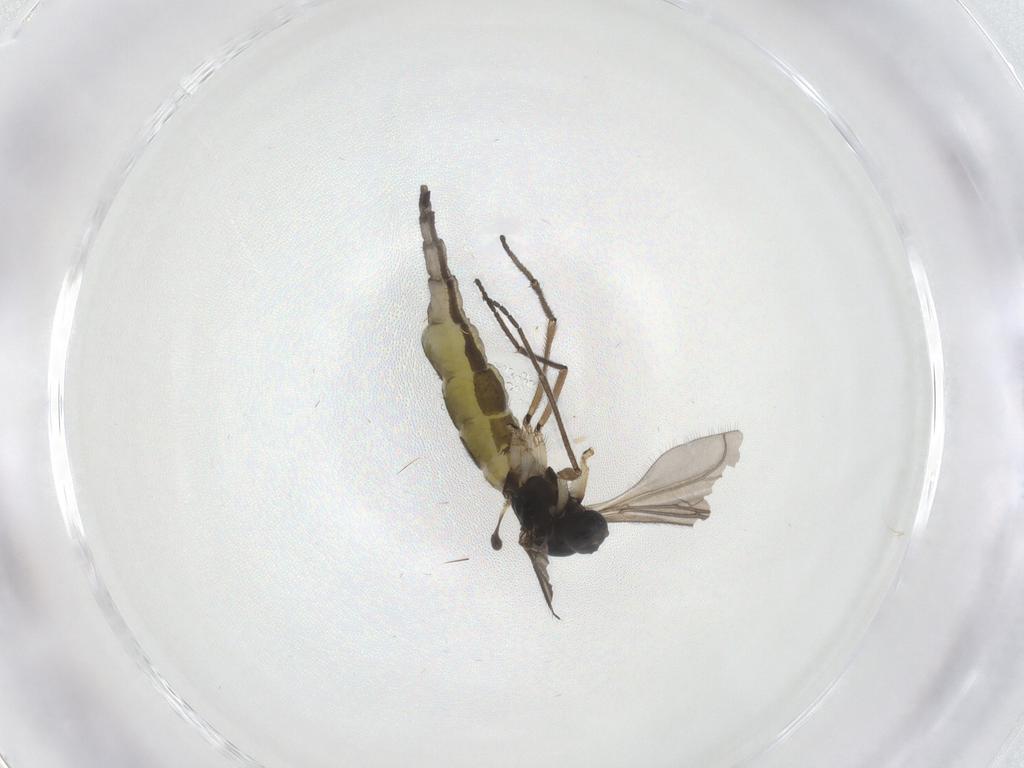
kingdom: Animalia
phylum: Arthropoda
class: Insecta
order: Diptera
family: Sciaridae
